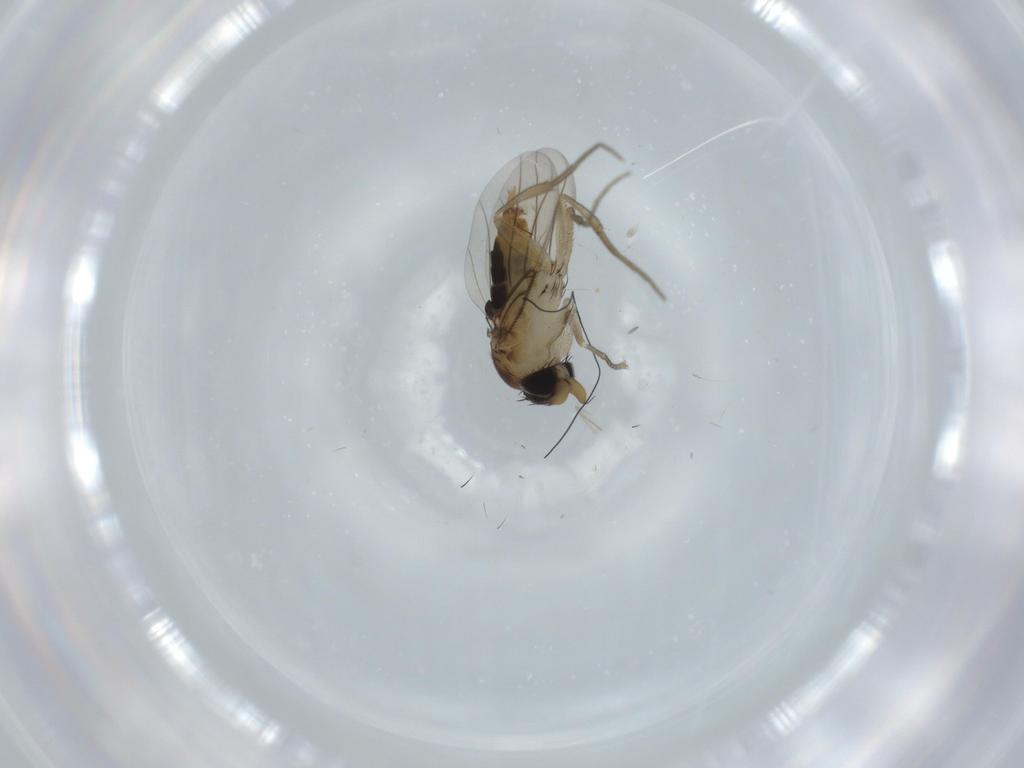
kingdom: Animalia
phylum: Arthropoda
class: Insecta
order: Diptera
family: Phoridae
